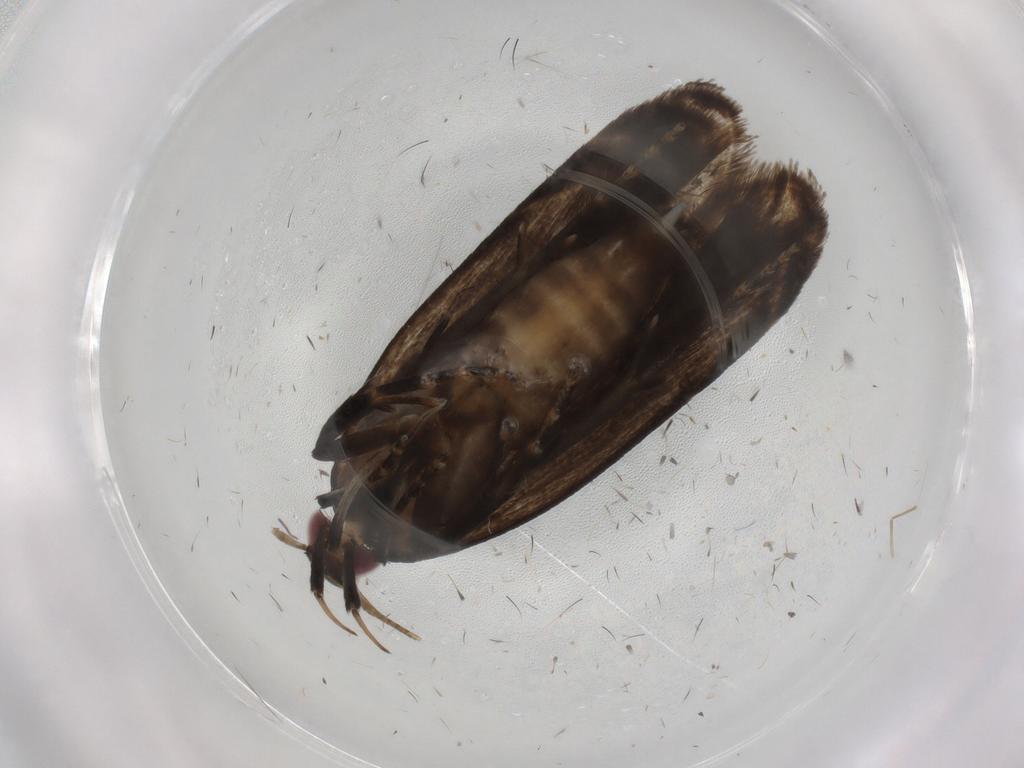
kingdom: Animalia
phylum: Arthropoda
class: Insecta
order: Lepidoptera
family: Gelechiidae
